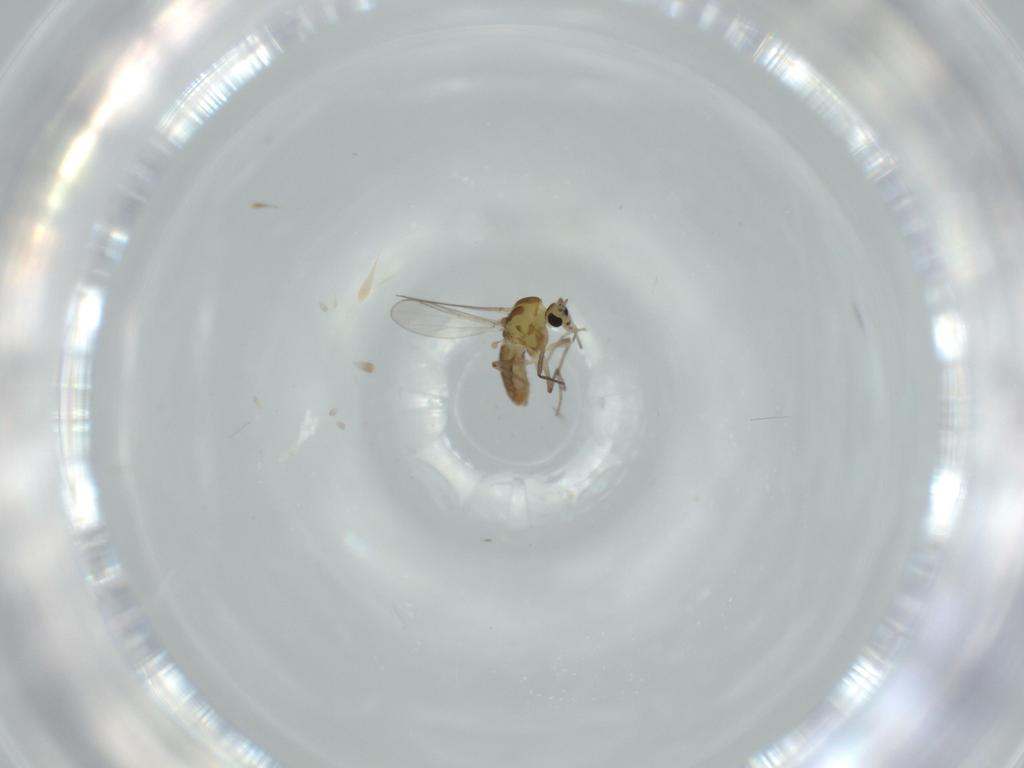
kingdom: Animalia
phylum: Arthropoda
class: Insecta
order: Diptera
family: Chironomidae
